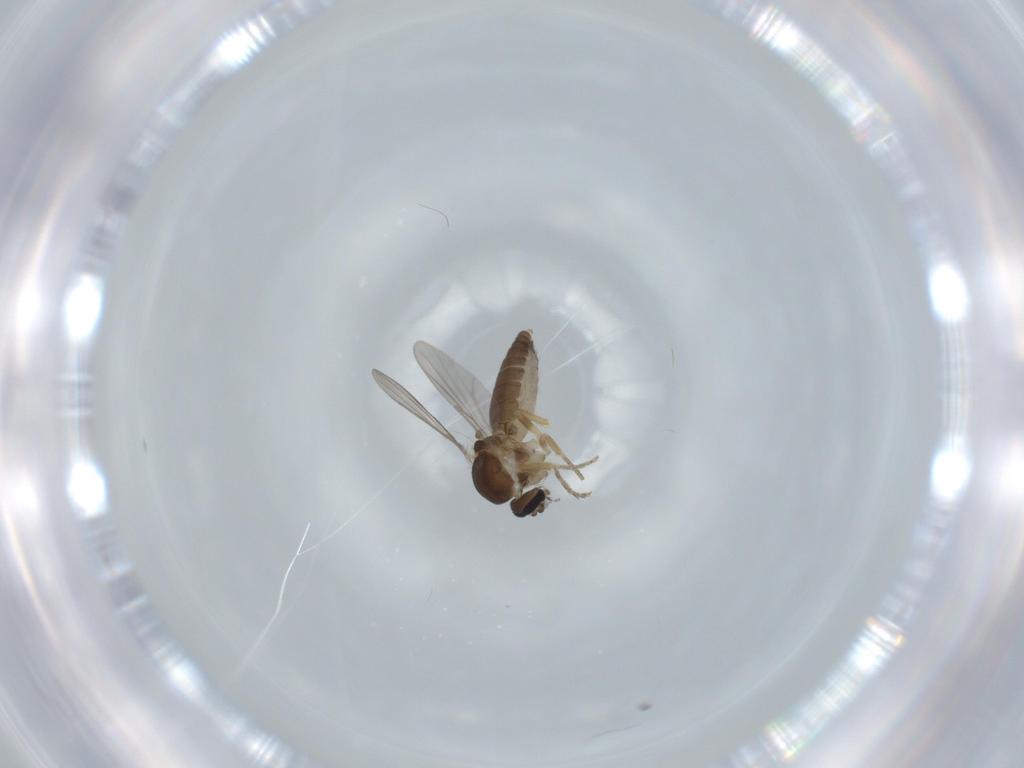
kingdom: Animalia
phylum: Arthropoda
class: Insecta
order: Diptera
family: Ceratopogonidae
